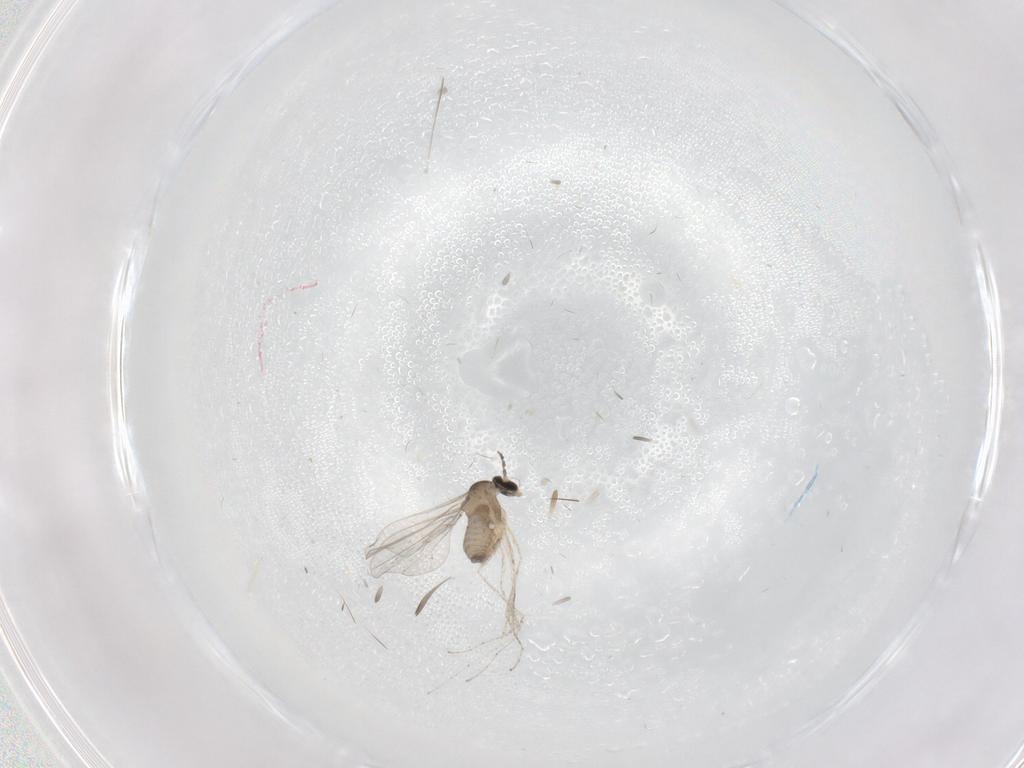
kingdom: Animalia
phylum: Arthropoda
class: Insecta
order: Diptera
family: Cecidomyiidae
